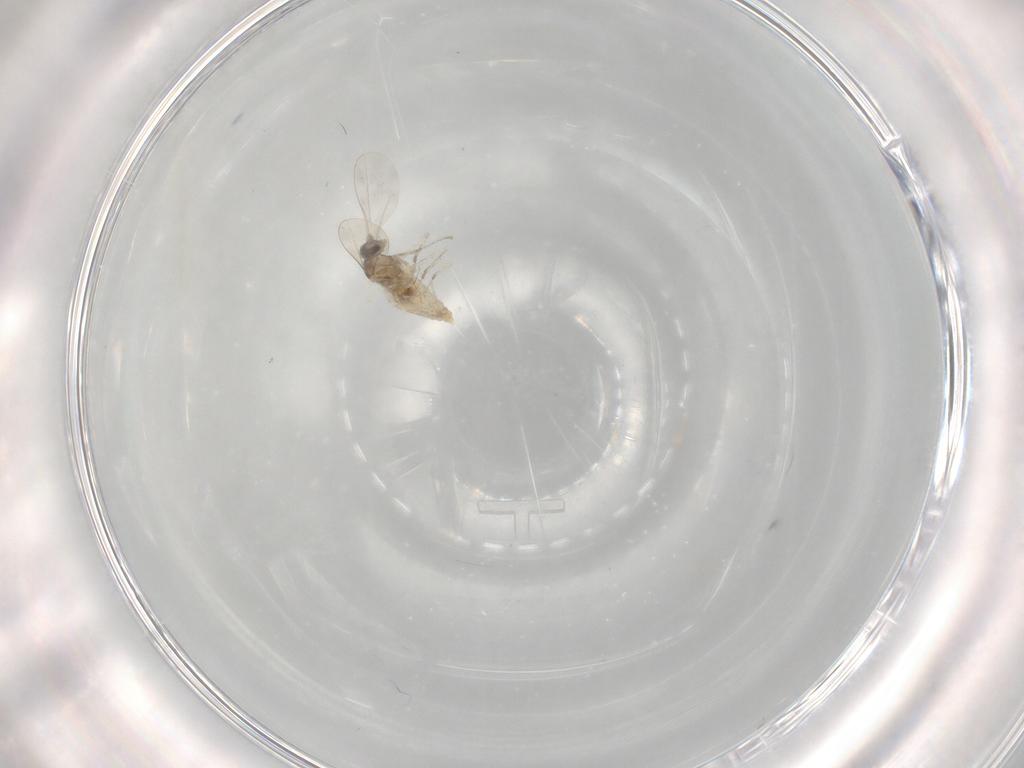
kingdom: Animalia
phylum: Arthropoda
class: Insecta
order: Diptera
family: Cecidomyiidae
